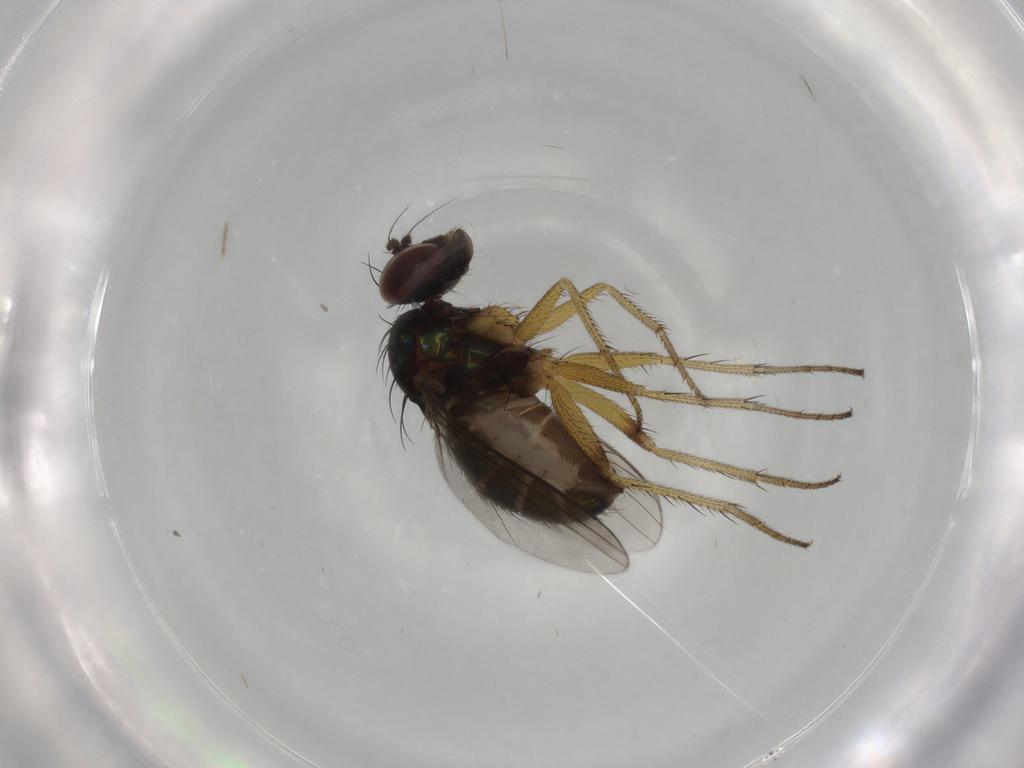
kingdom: Animalia
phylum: Arthropoda
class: Insecta
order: Diptera
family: Dolichopodidae
